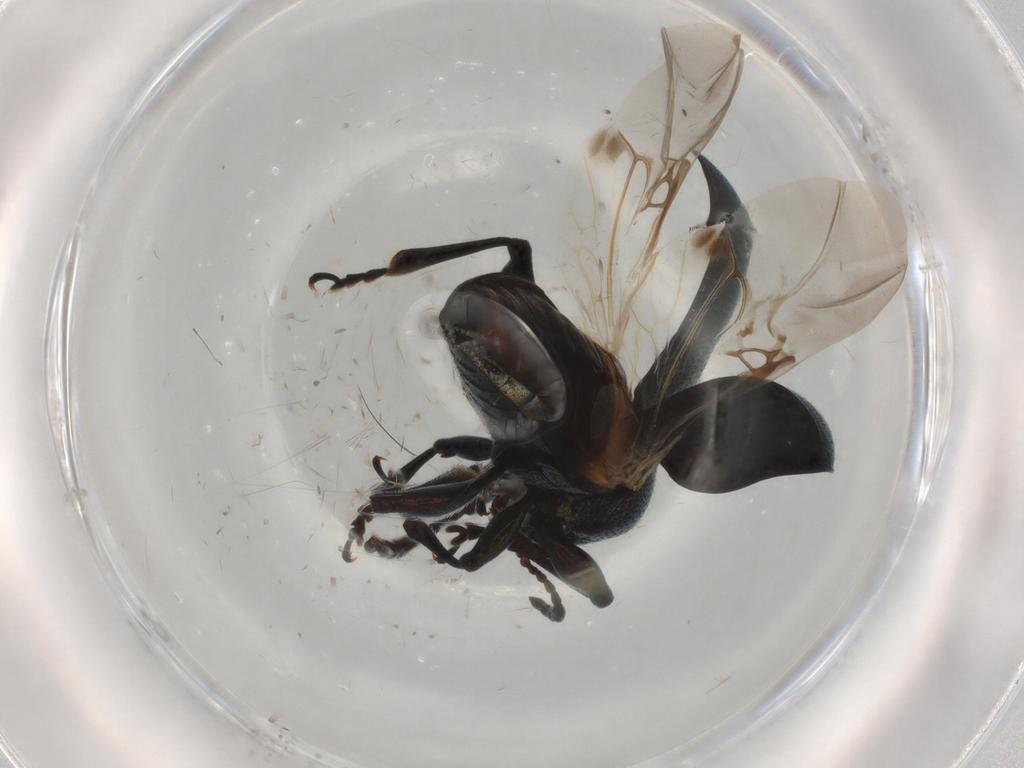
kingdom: Animalia
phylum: Arthropoda
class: Insecta
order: Coleoptera
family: Chrysomelidae
